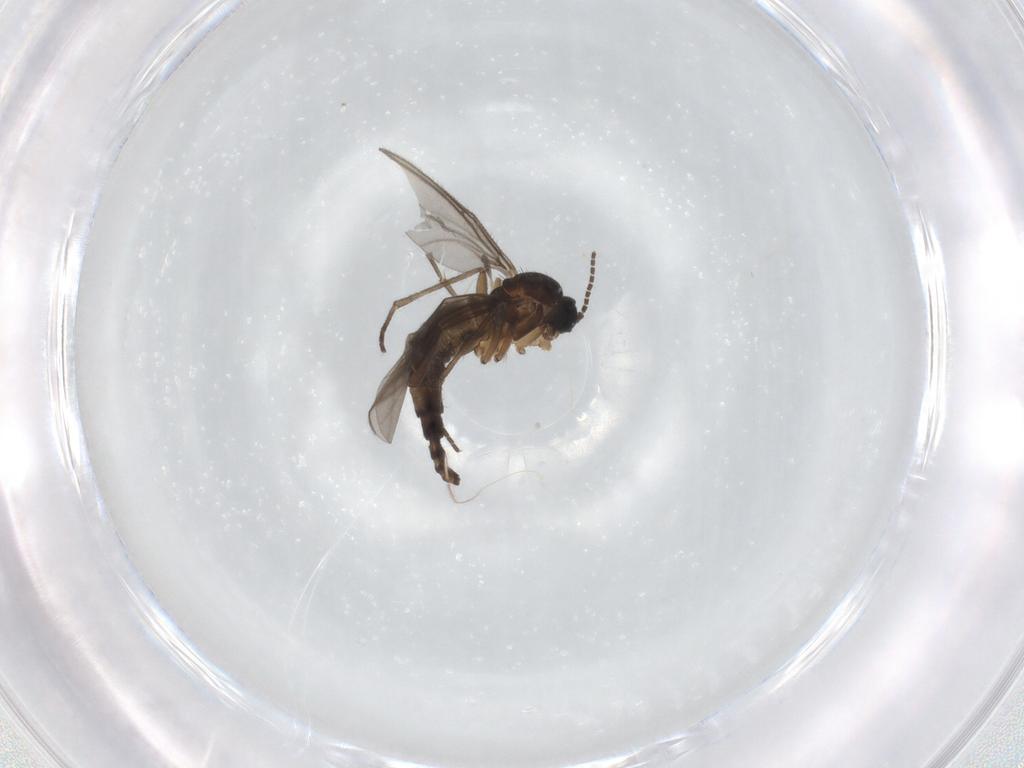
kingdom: Animalia
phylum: Arthropoda
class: Insecta
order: Diptera
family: Sciaridae
